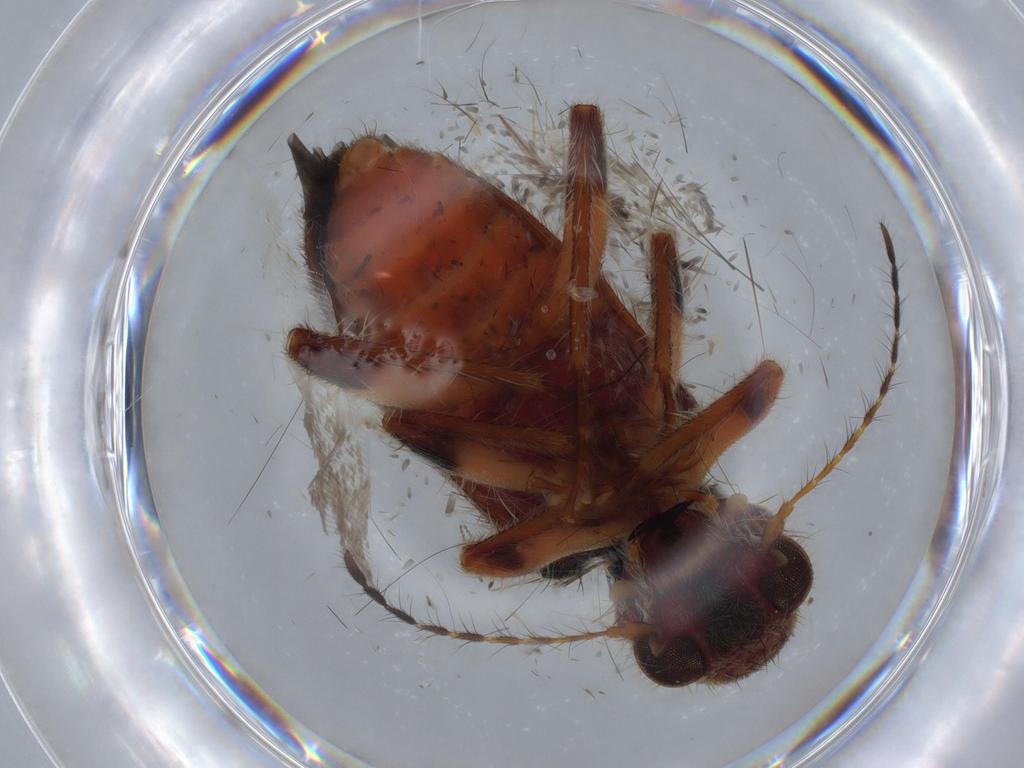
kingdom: Animalia
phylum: Arthropoda
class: Insecta
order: Diptera
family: Cecidomyiidae
